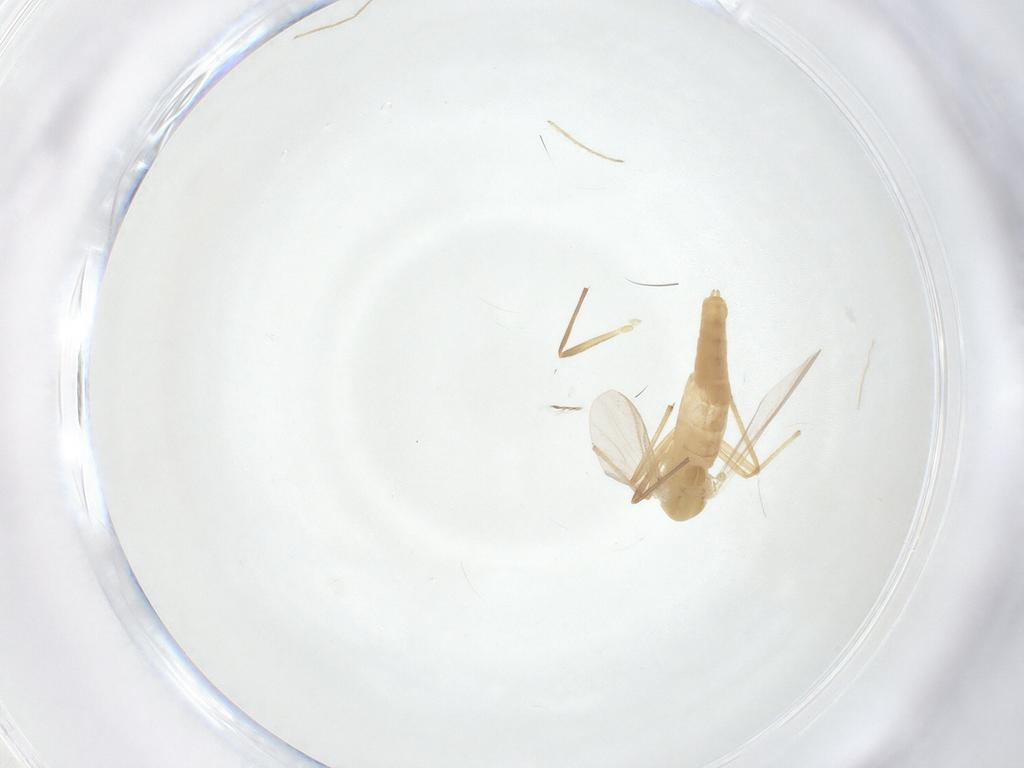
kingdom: Animalia
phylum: Arthropoda
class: Insecta
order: Diptera
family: Chironomidae
